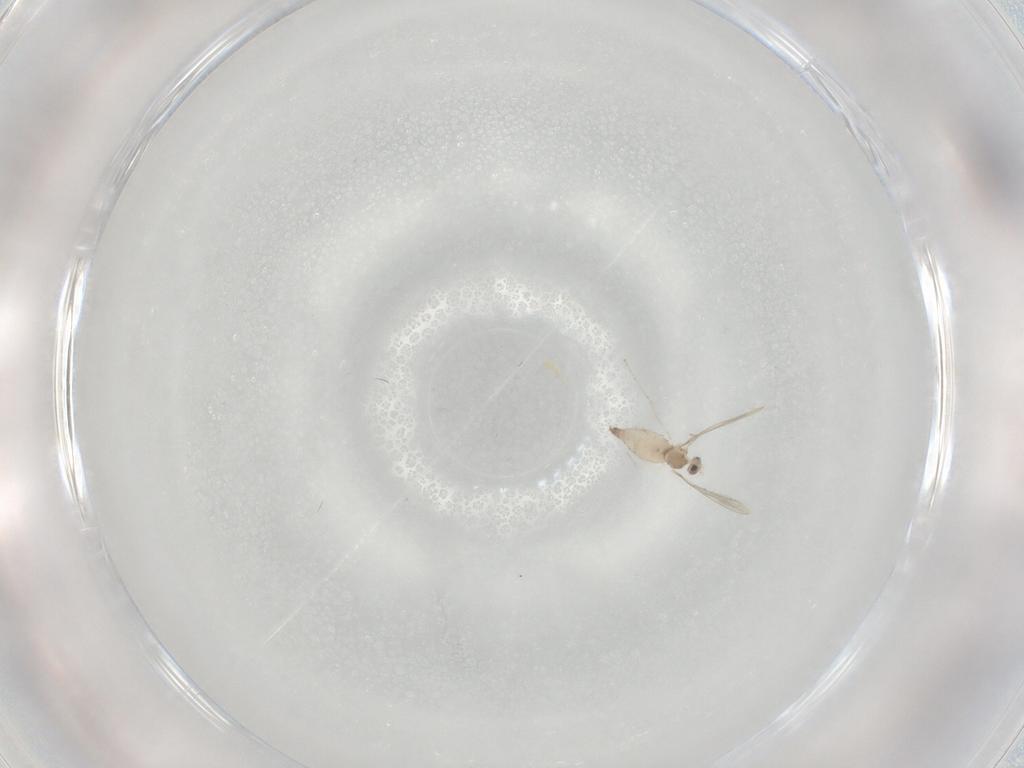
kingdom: Animalia
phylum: Arthropoda
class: Insecta
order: Diptera
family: Cecidomyiidae
